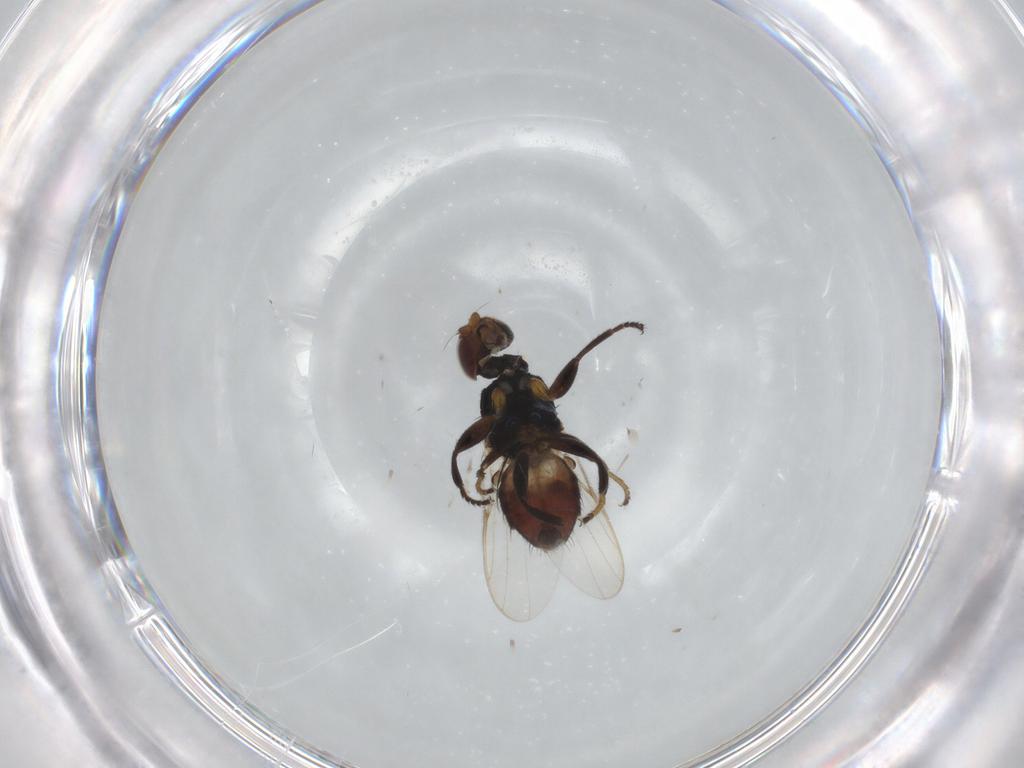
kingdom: Animalia
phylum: Arthropoda
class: Insecta
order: Diptera
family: Chloropidae
